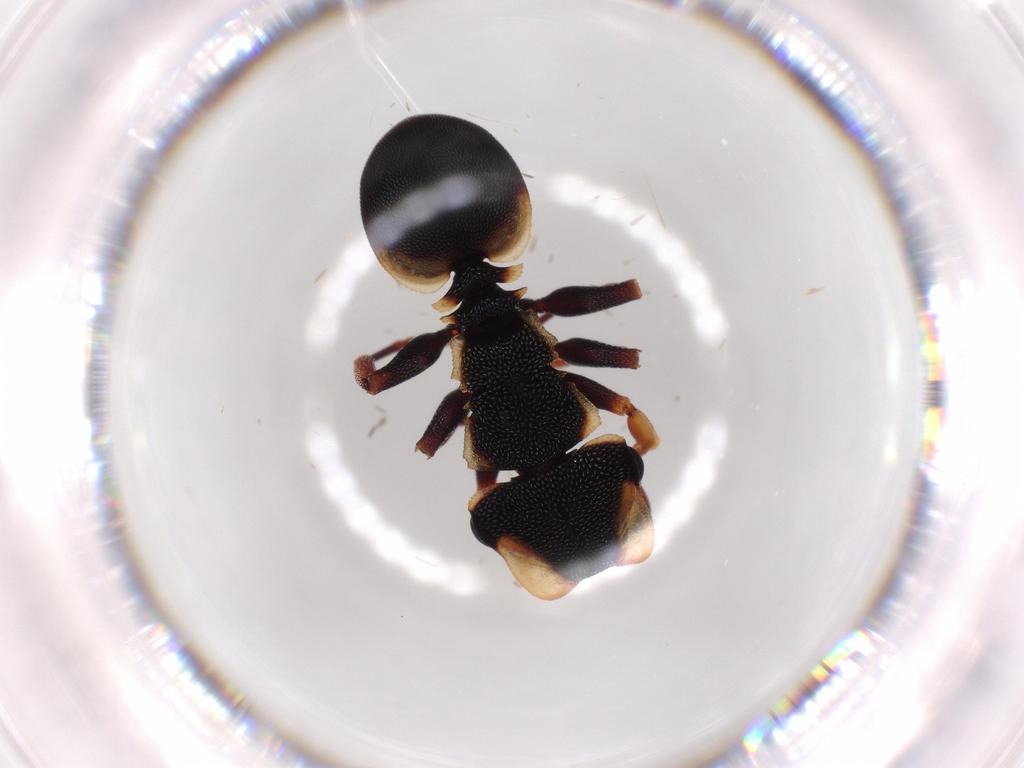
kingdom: Animalia
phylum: Arthropoda
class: Insecta
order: Hymenoptera
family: Formicidae
